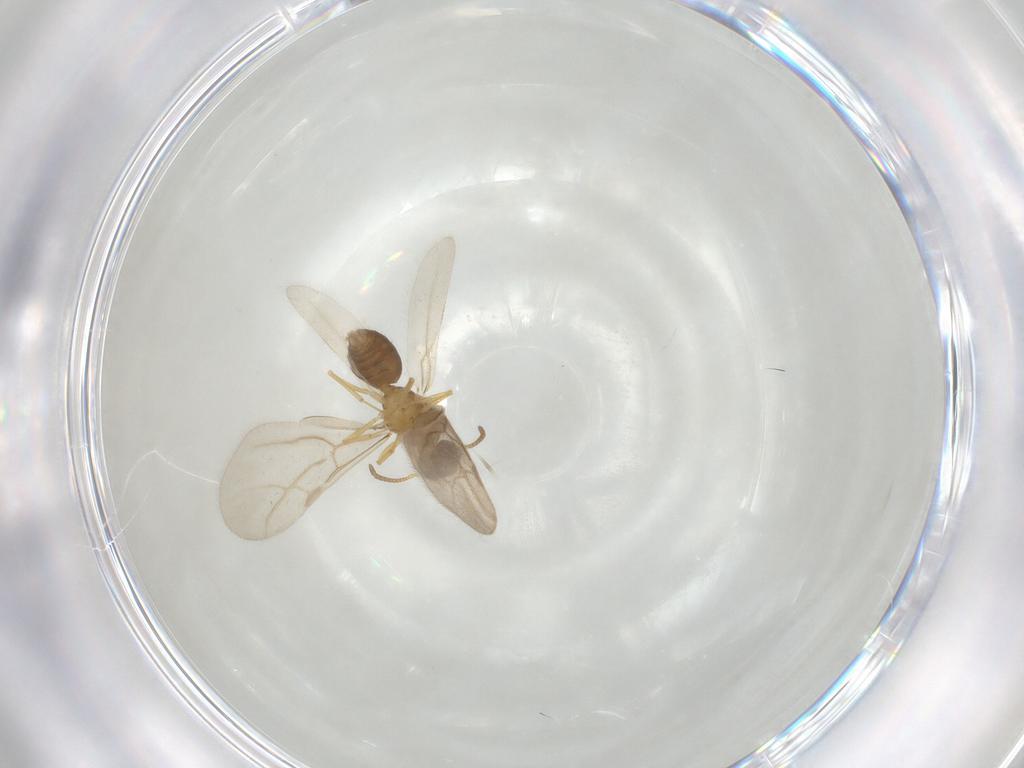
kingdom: Animalia
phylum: Arthropoda
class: Insecta
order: Hymenoptera
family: Formicidae
